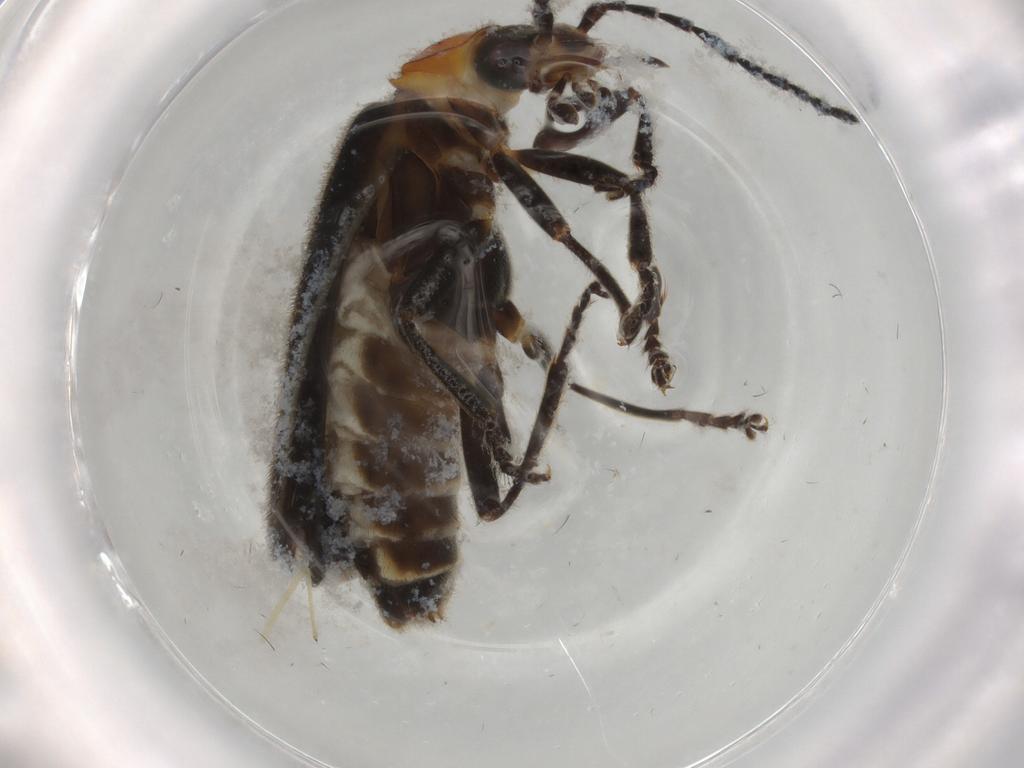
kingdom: Animalia
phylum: Arthropoda
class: Insecta
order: Coleoptera
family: Cantharidae
